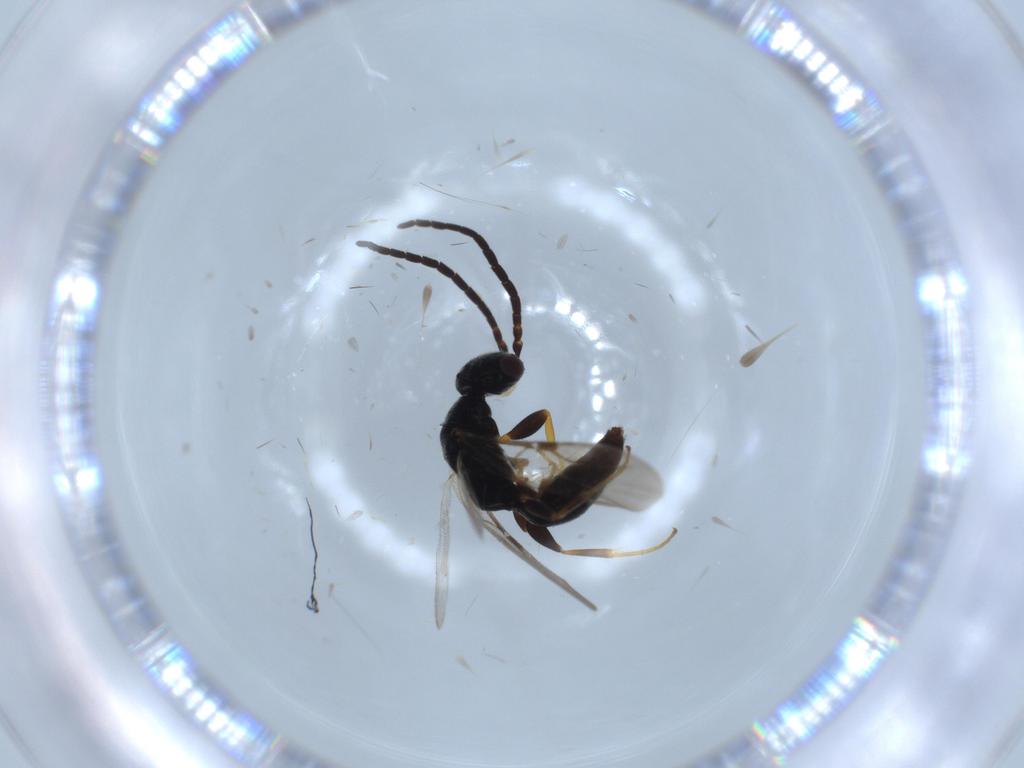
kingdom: Animalia
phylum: Arthropoda
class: Insecta
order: Hymenoptera
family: Bethylidae
